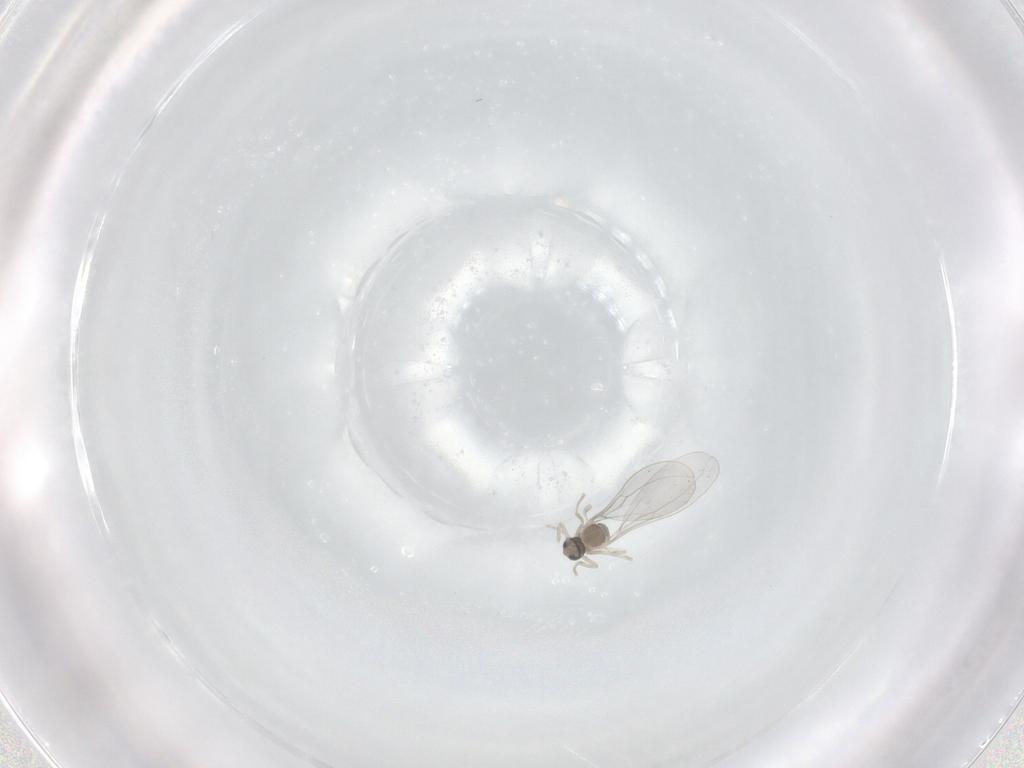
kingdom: Animalia
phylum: Arthropoda
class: Insecta
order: Diptera
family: Cecidomyiidae
